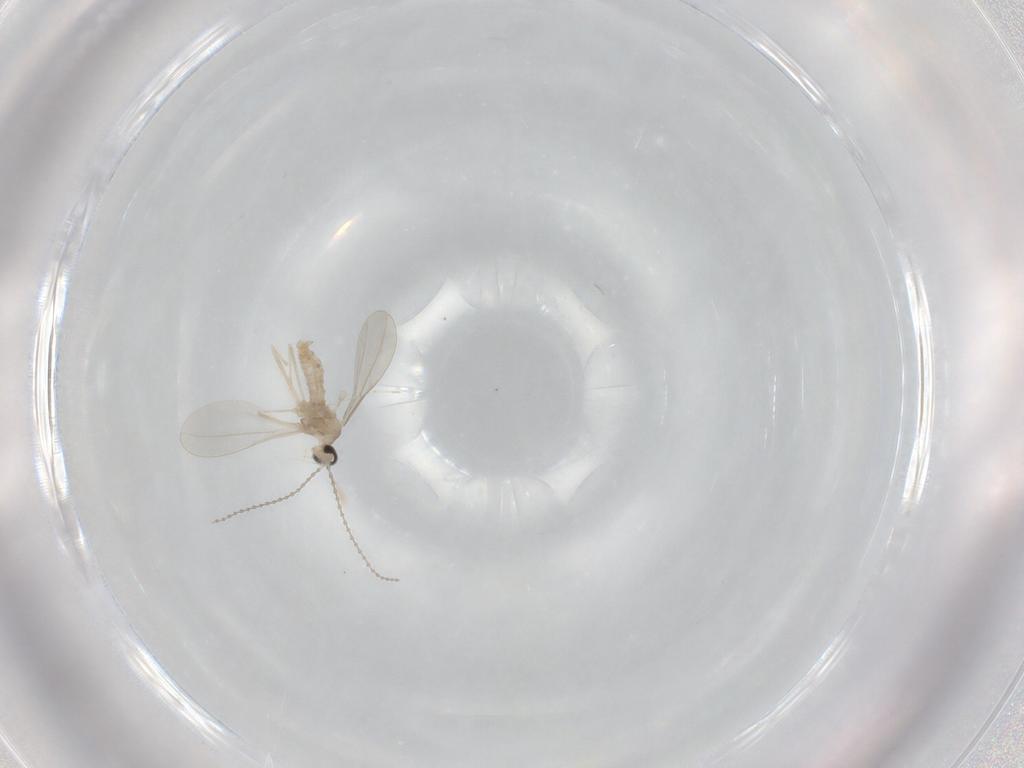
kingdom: Animalia
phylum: Arthropoda
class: Insecta
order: Diptera
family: Cecidomyiidae
